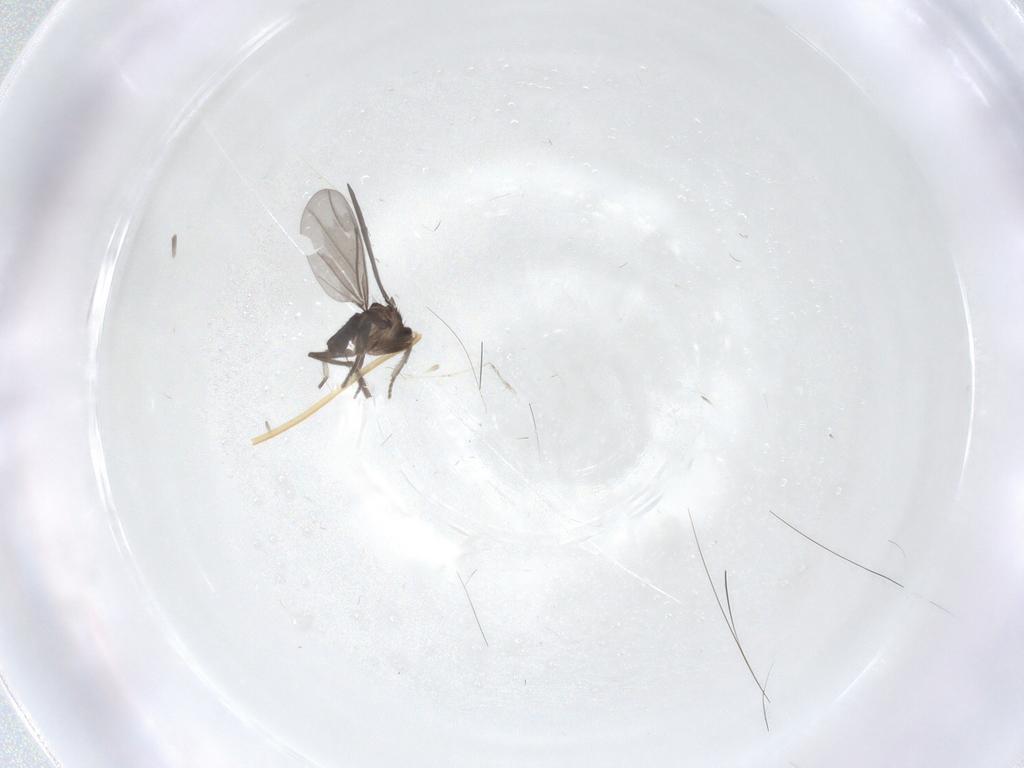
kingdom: Animalia
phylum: Arthropoda
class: Insecta
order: Diptera
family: Phoridae
